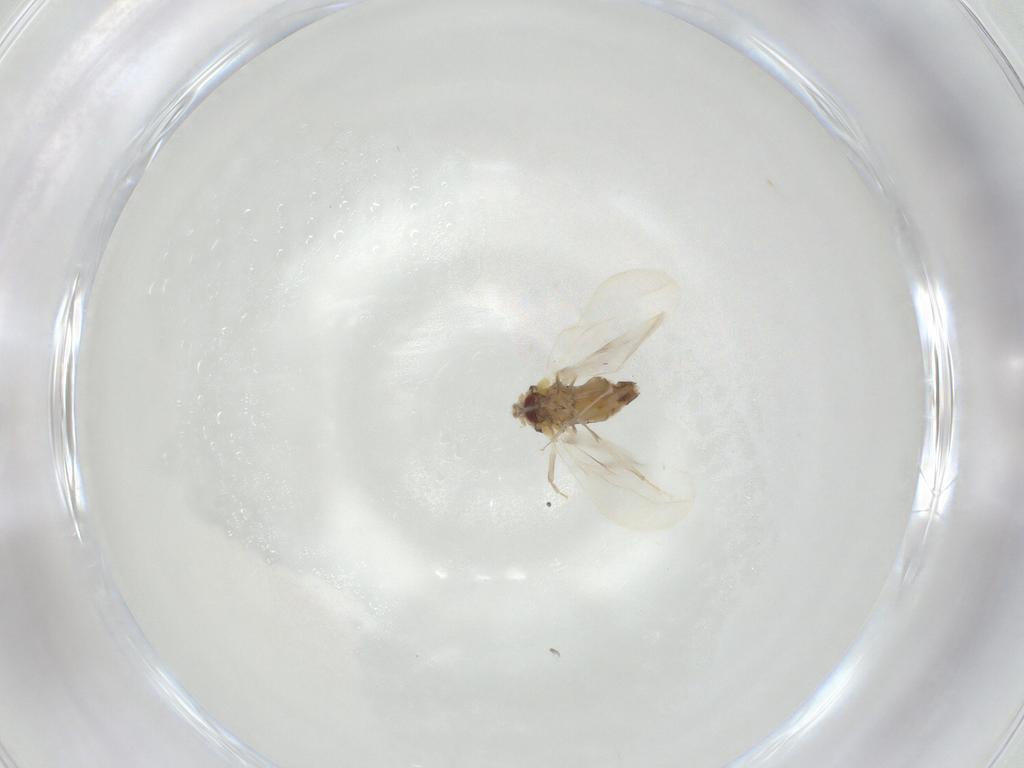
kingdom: Animalia
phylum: Arthropoda
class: Insecta
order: Hemiptera
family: Aleyrodidae
